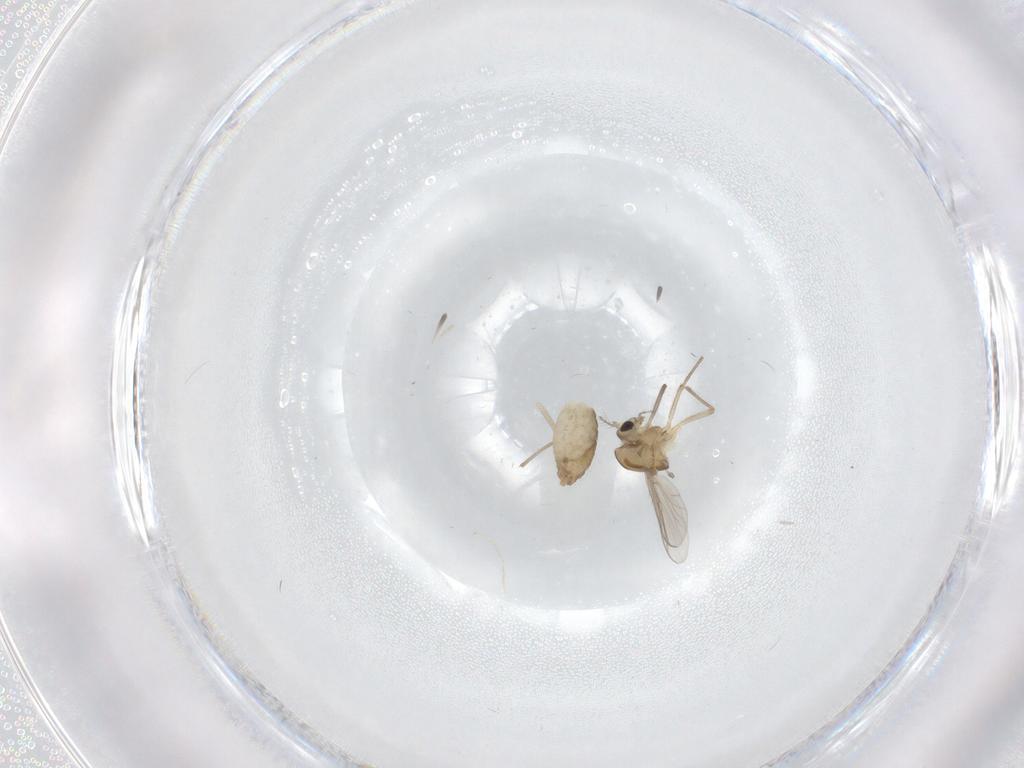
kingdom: Animalia
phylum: Arthropoda
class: Insecta
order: Diptera
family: Chironomidae
